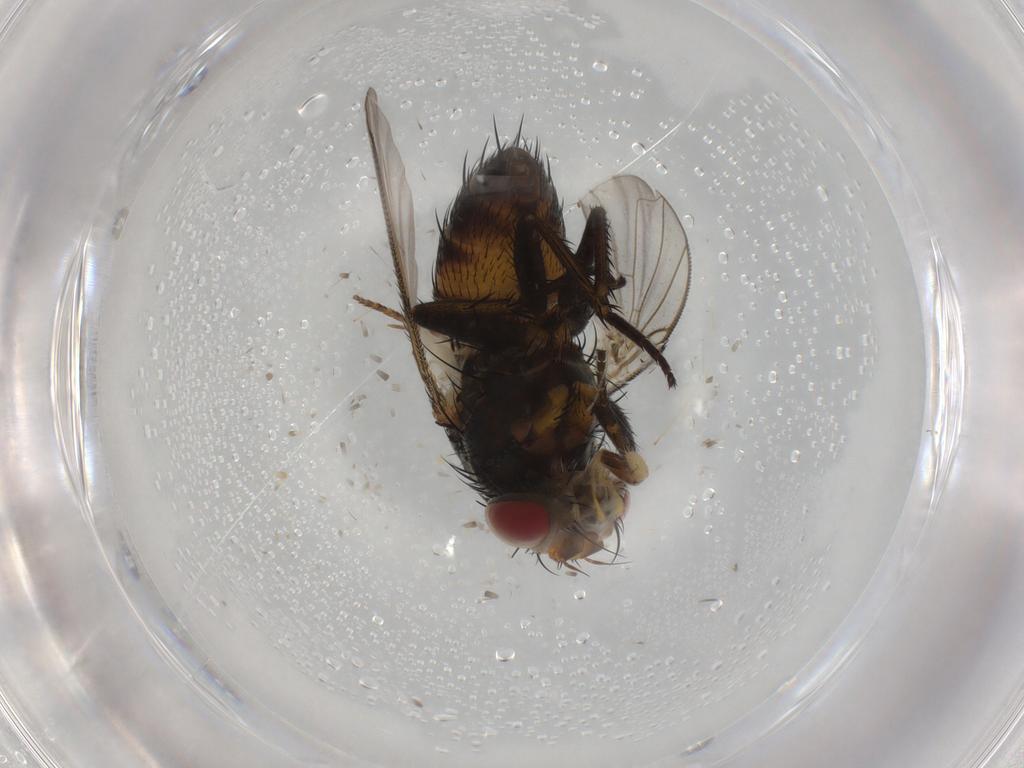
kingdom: Animalia
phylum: Arthropoda
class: Insecta
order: Diptera
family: Tachinidae
